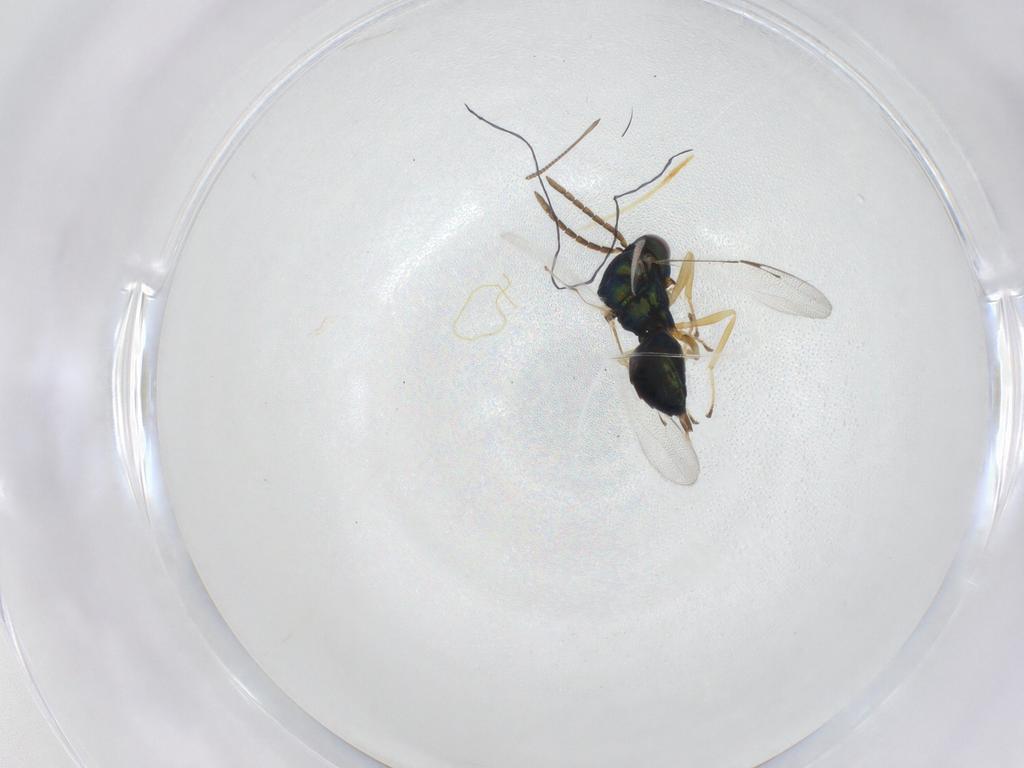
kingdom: Animalia
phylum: Arthropoda
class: Insecta
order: Hymenoptera
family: Pteromalidae
